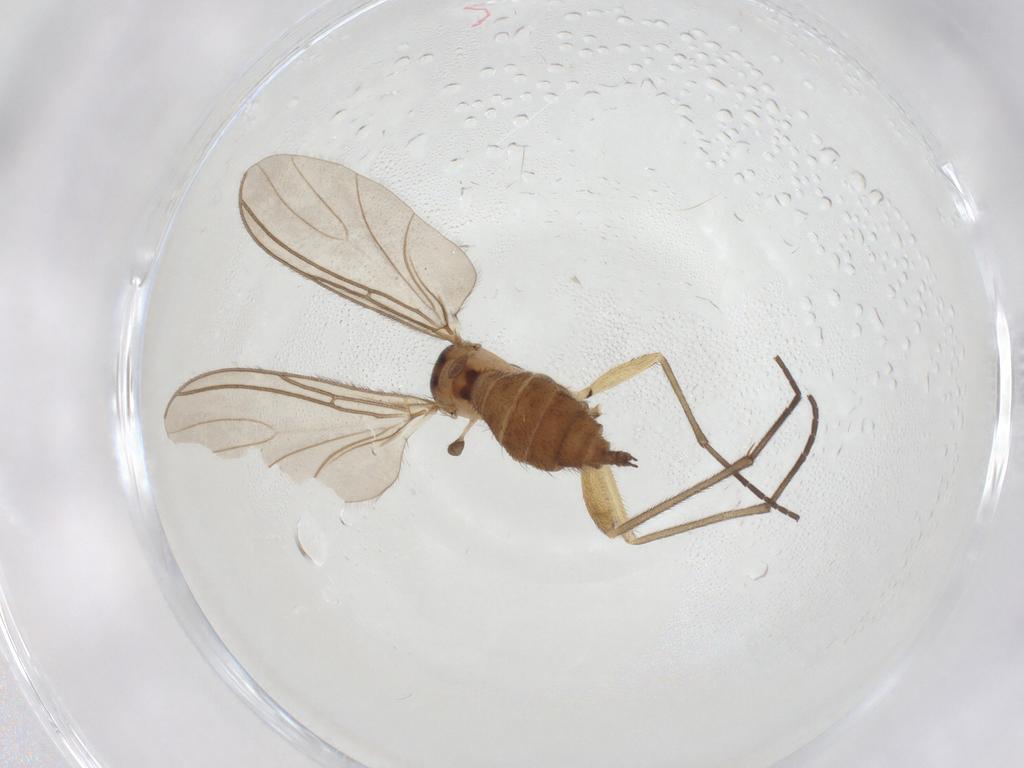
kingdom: Animalia
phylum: Arthropoda
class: Insecta
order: Diptera
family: Sciaridae
